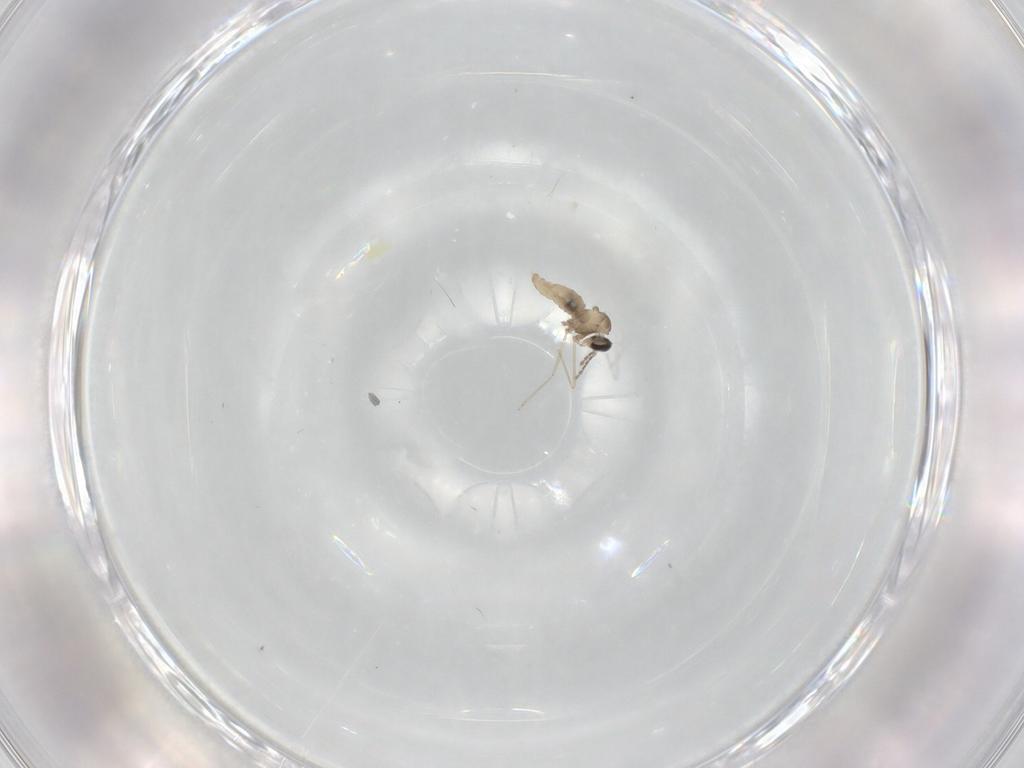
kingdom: Animalia
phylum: Arthropoda
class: Insecta
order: Diptera
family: Cecidomyiidae
